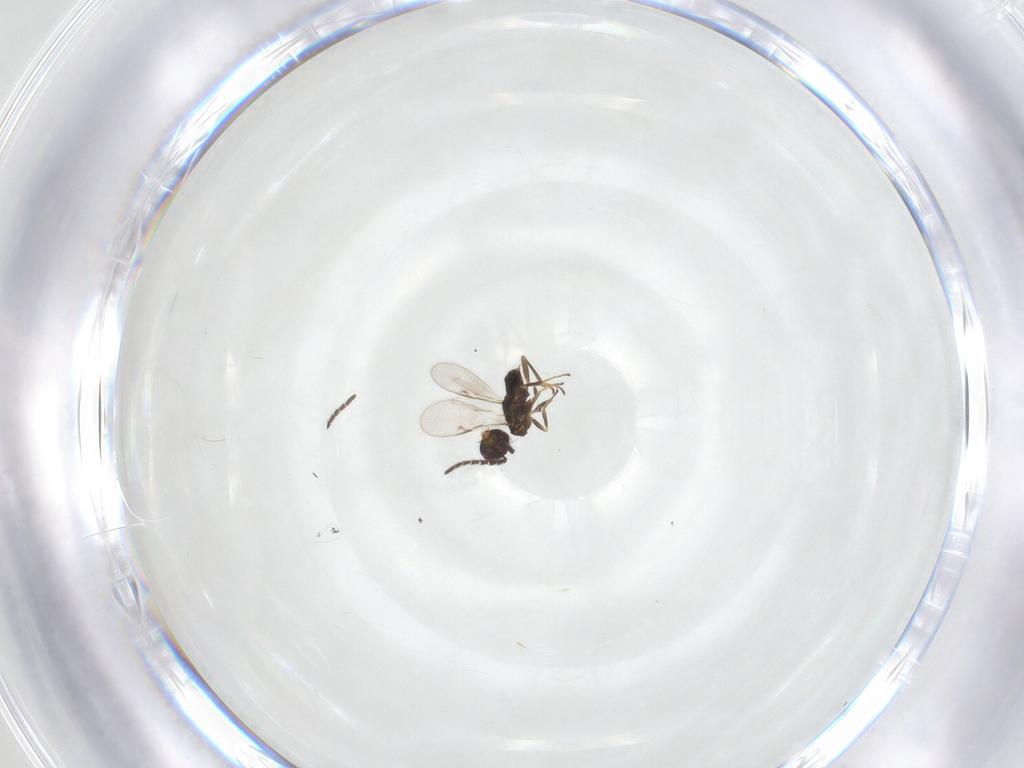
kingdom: Animalia
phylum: Arthropoda
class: Insecta
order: Hymenoptera
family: Encyrtidae
